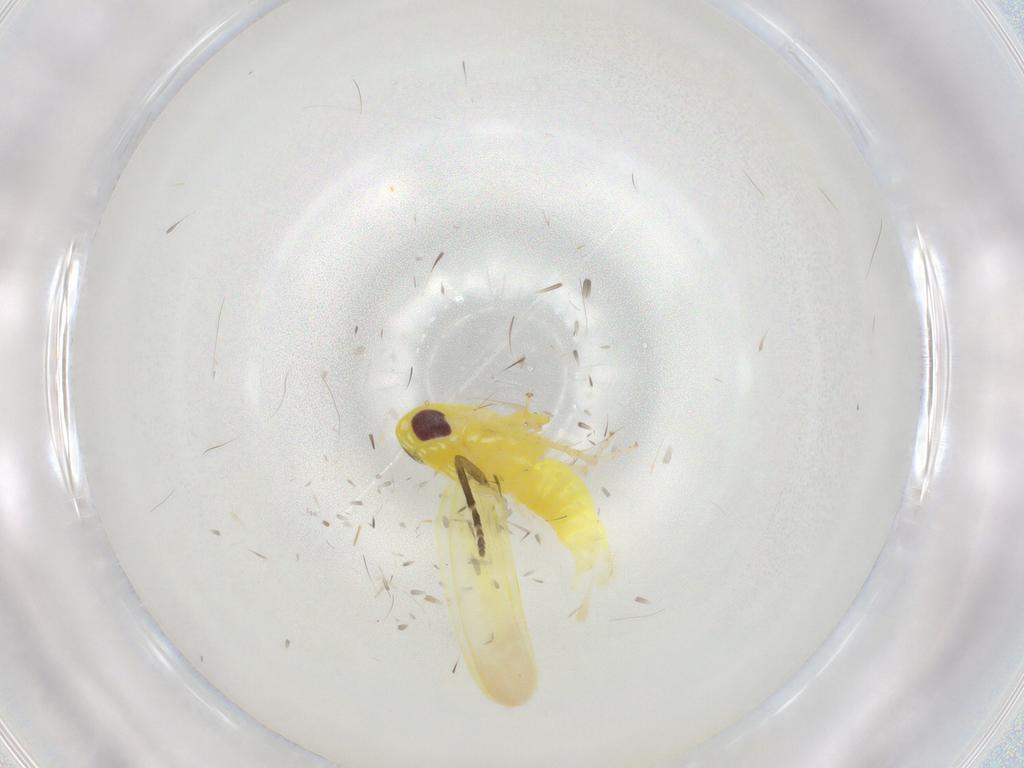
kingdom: Animalia
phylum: Arthropoda
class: Insecta
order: Hemiptera
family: Cicadellidae
